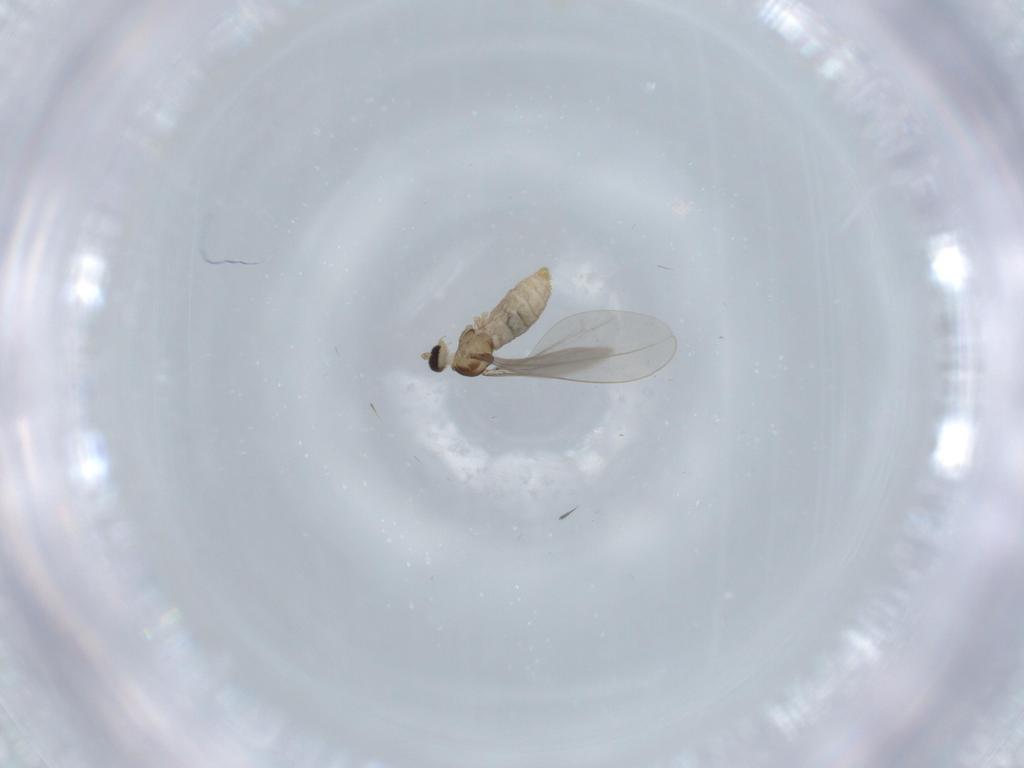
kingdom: Animalia
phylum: Arthropoda
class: Insecta
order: Diptera
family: Cecidomyiidae
